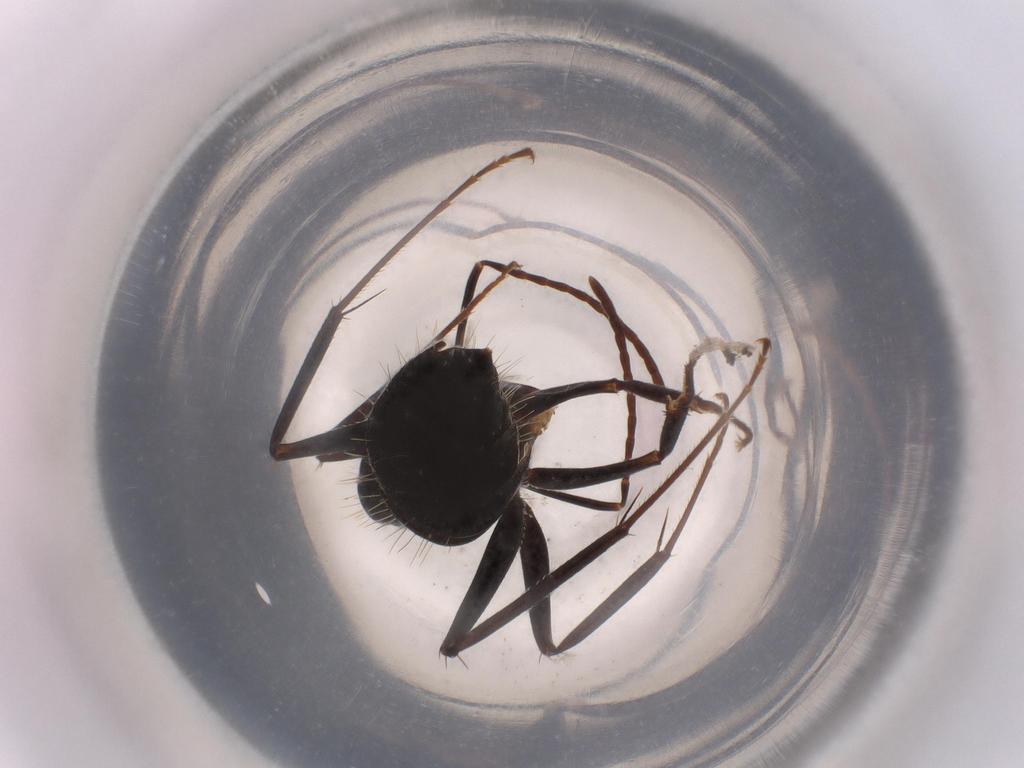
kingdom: Animalia
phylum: Arthropoda
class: Insecta
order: Hymenoptera
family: Formicidae
